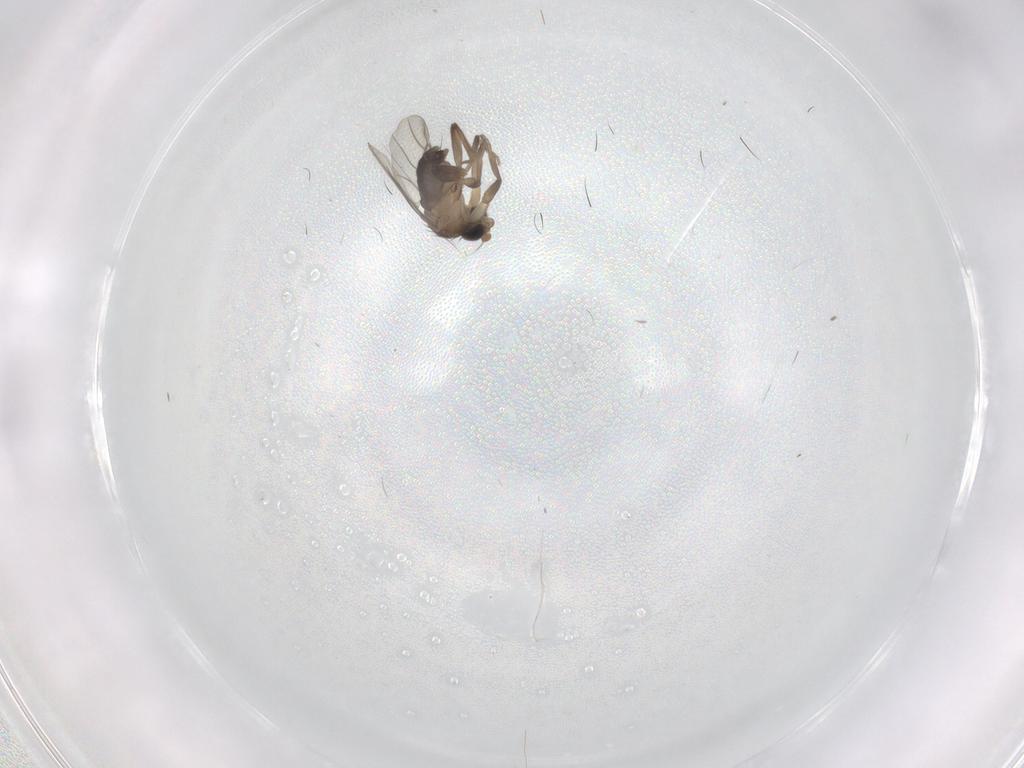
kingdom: Animalia
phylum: Arthropoda
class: Insecta
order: Diptera
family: Phoridae
